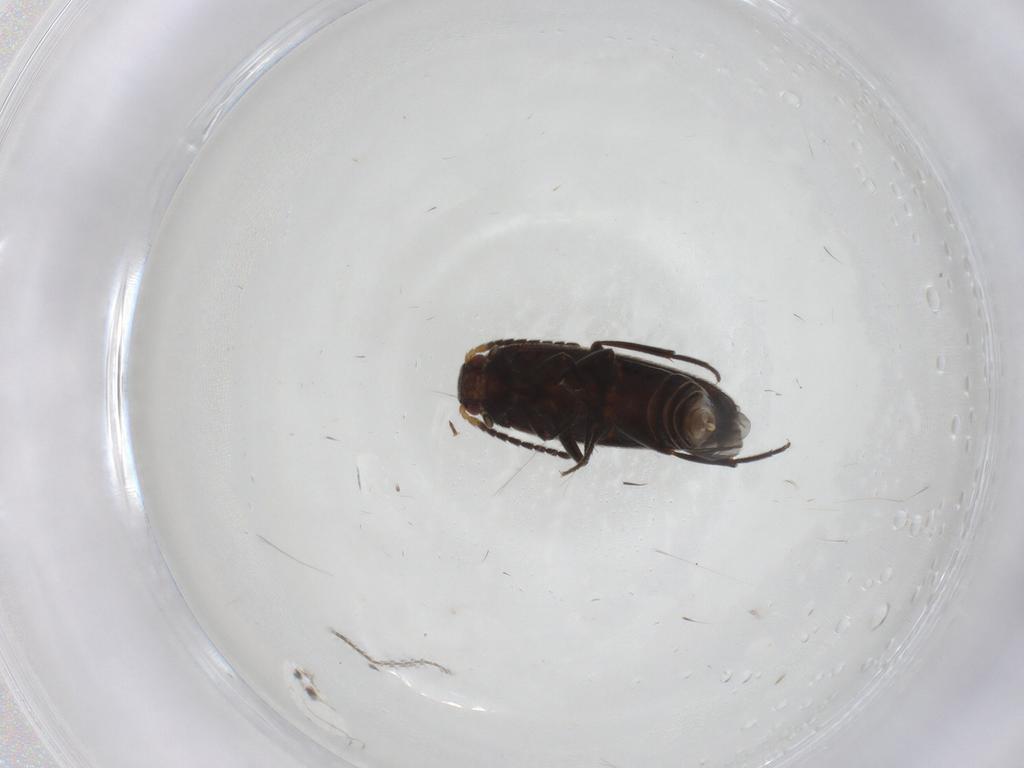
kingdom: Animalia
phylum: Arthropoda
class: Insecta
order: Coleoptera
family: Melandryidae
